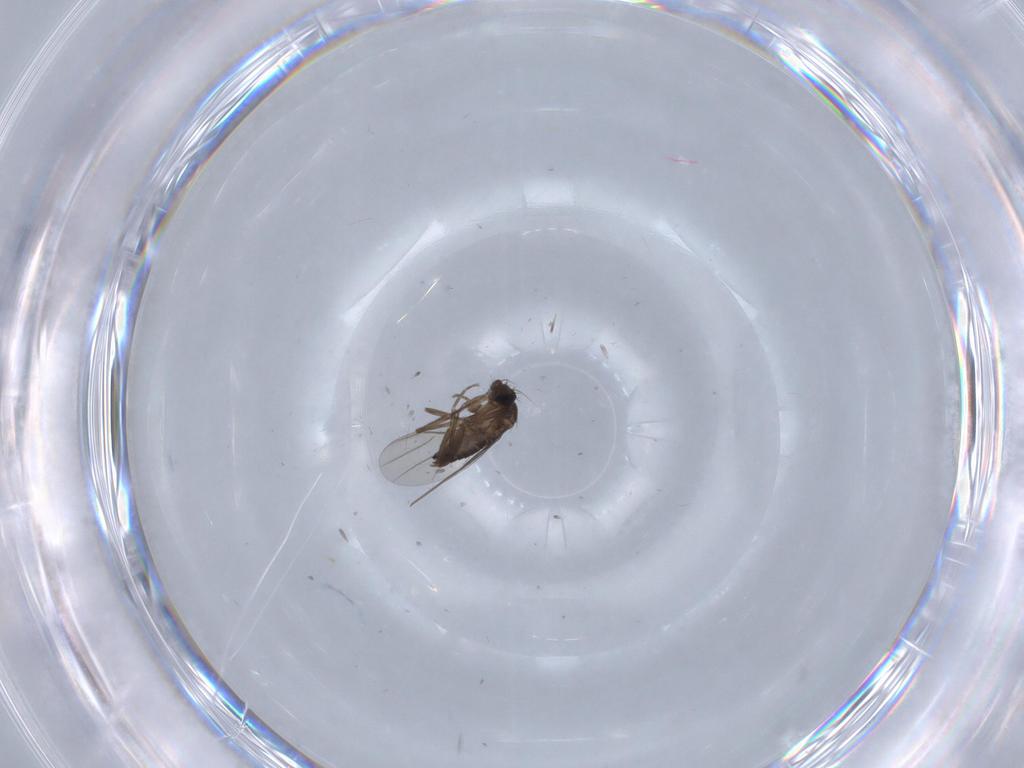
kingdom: Animalia
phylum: Arthropoda
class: Insecta
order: Diptera
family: Phoridae
